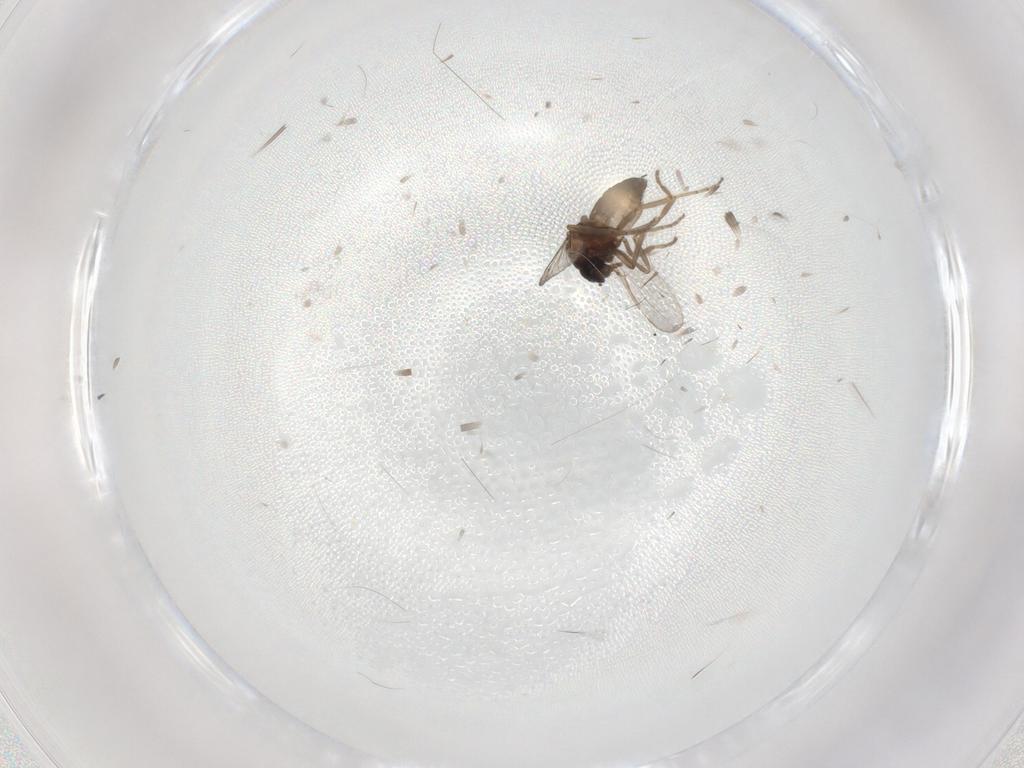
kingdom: Animalia
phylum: Arthropoda
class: Insecta
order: Diptera
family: Ceratopogonidae
